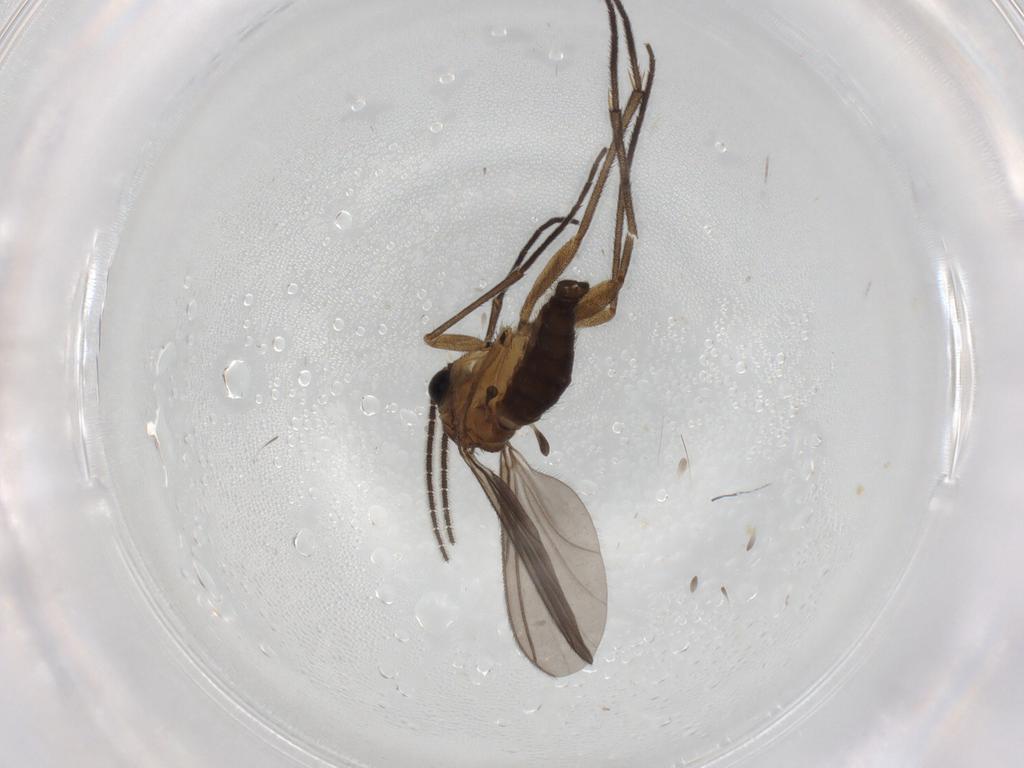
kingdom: Animalia
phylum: Arthropoda
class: Insecta
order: Diptera
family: Sciaridae
